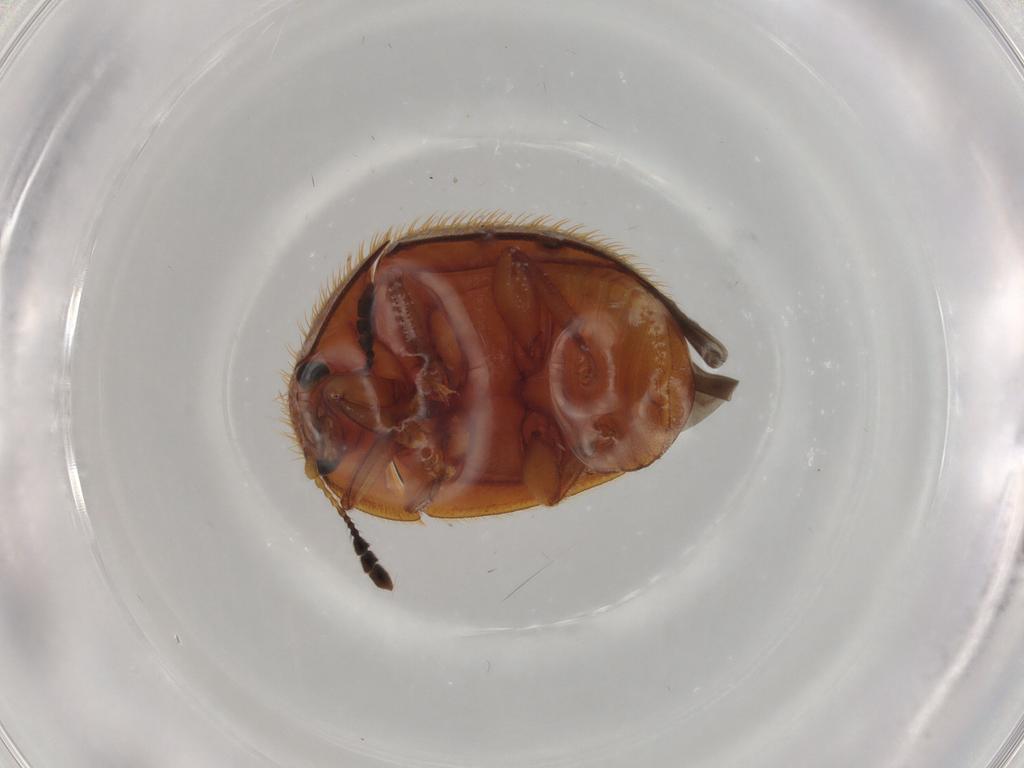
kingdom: Animalia
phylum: Arthropoda
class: Insecta
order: Coleoptera
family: Nitidulidae
